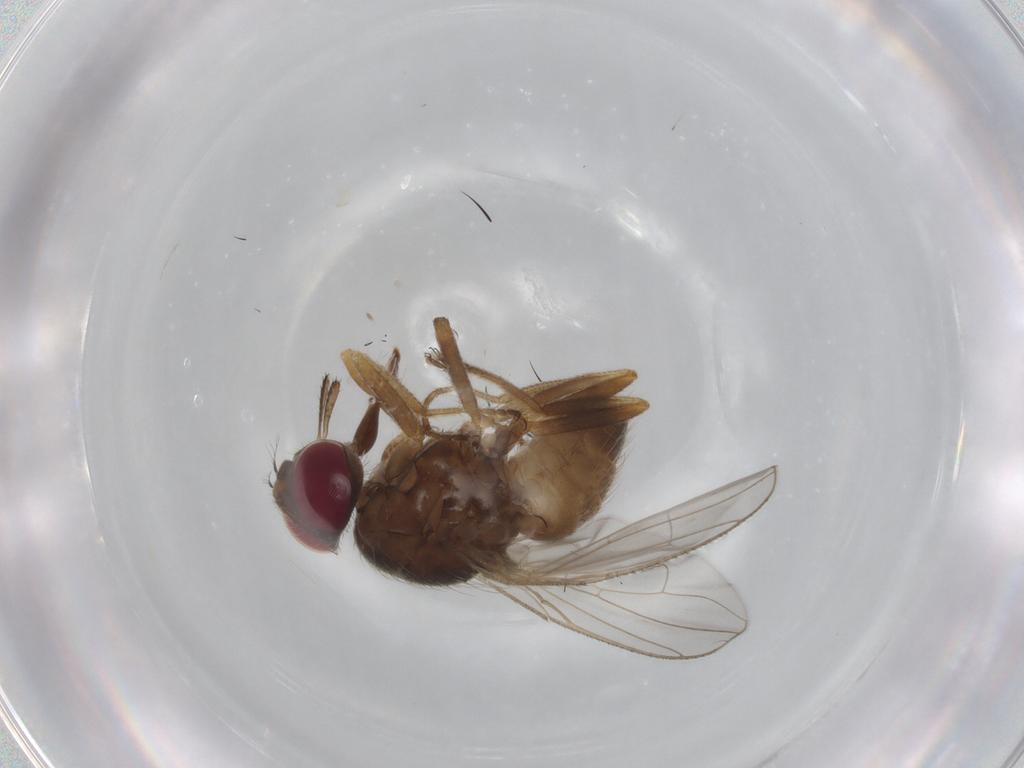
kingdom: Animalia
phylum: Arthropoda
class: Insecta
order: Diptera
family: Muscidae
